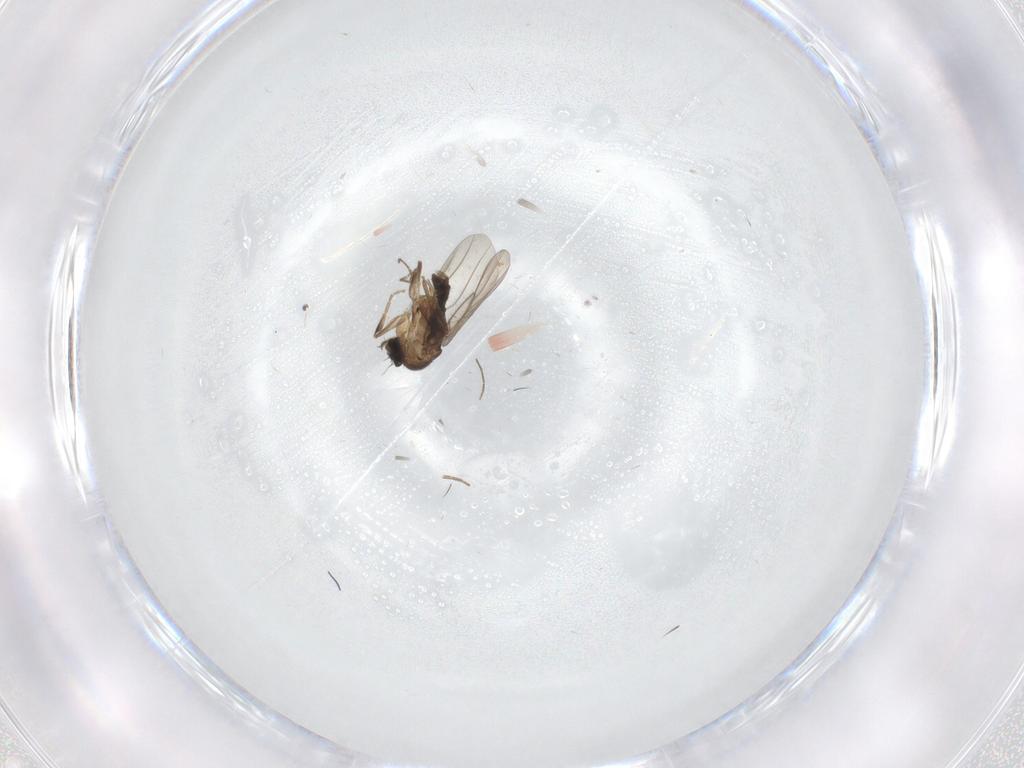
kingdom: Animalia
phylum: Arthropoda
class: Insecta
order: Diptera
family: Phoridae
